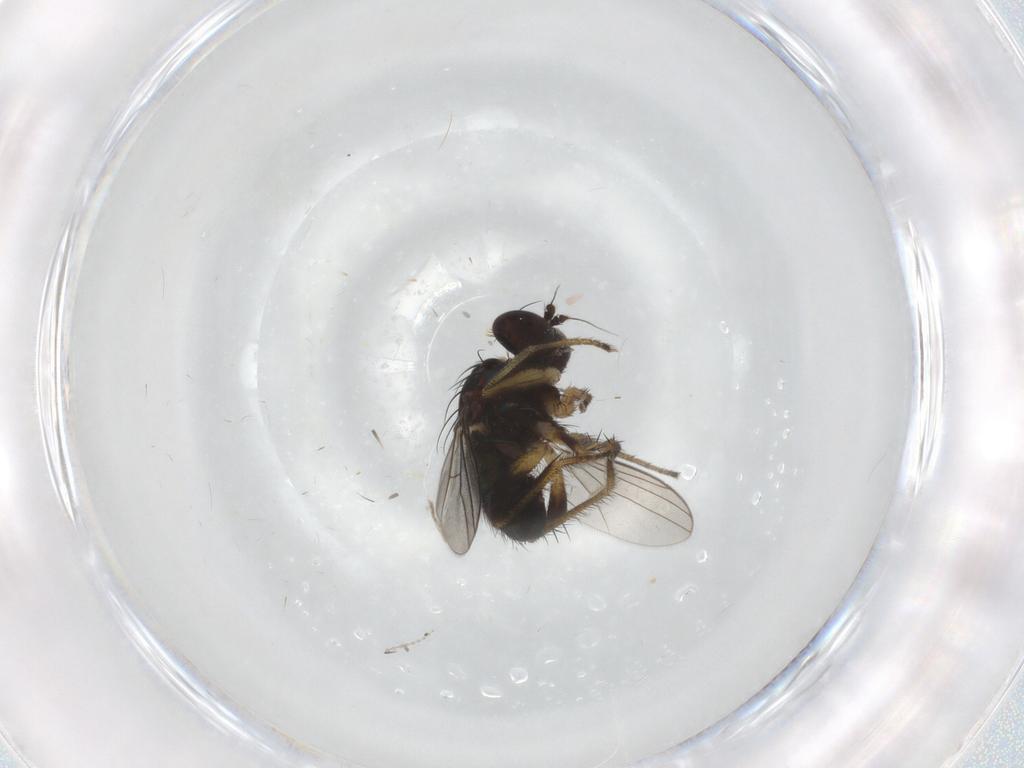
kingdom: Animalia
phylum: Arthropoda
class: Insecta
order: Diptera
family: Dolichopodidae
